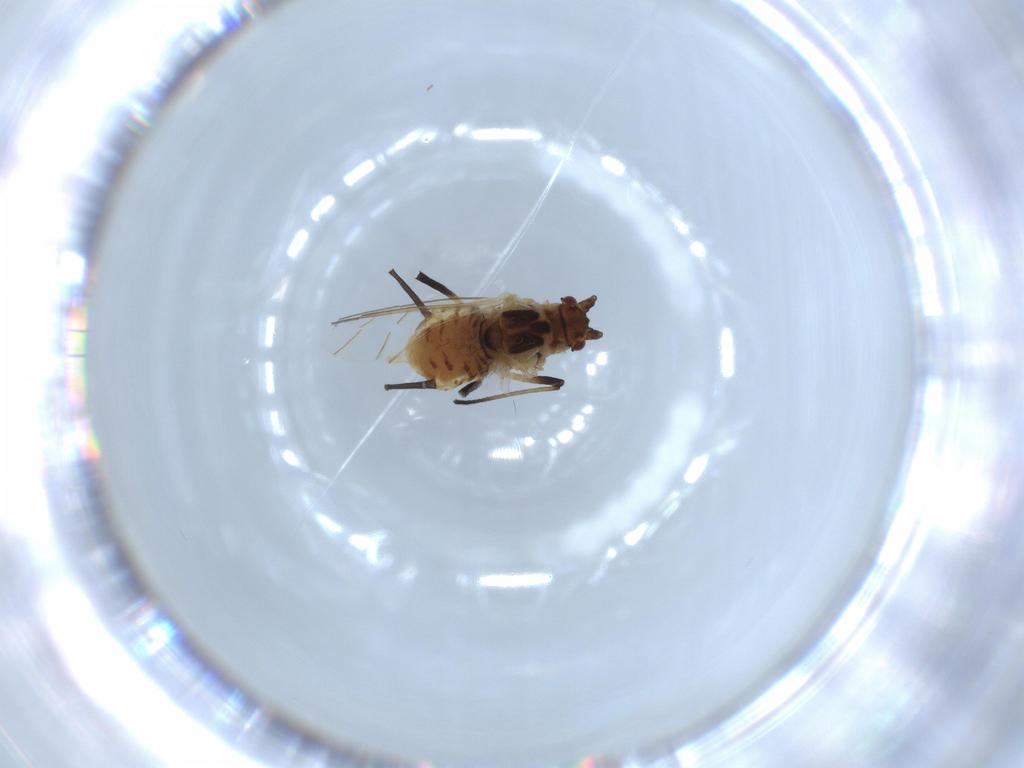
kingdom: Animalia
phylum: Arthropoda
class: Insecta
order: Hemiptera
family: Aphididae
